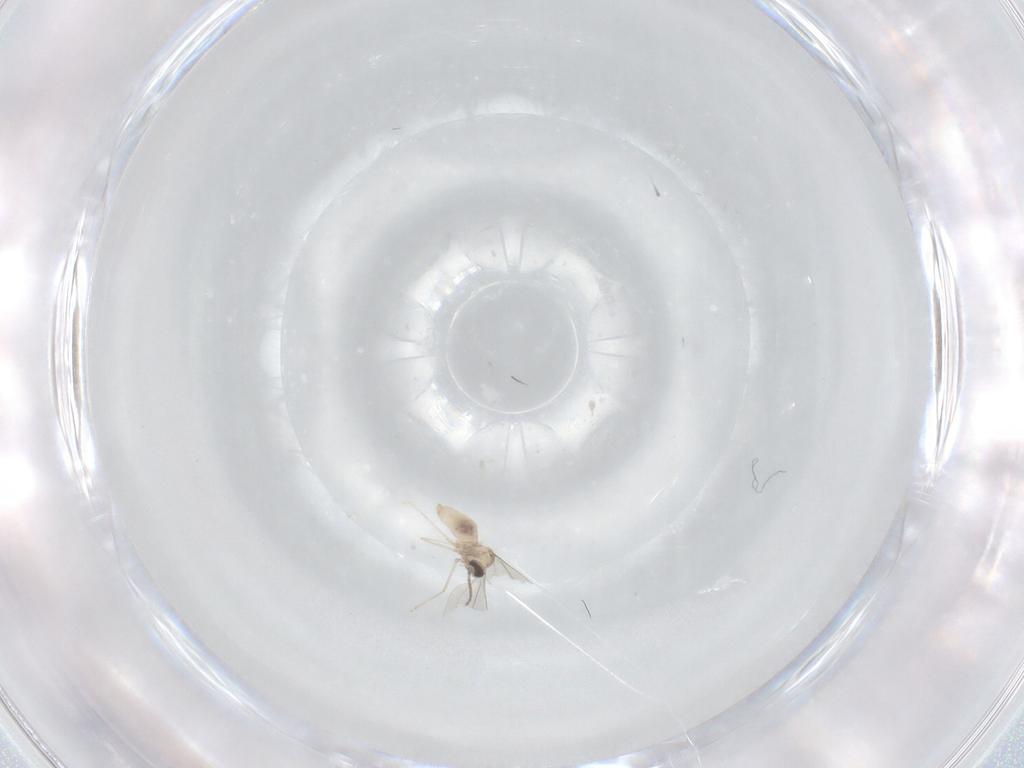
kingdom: Animalia
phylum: Arthropoda
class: Insecta
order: Diptera
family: Cecidomyiidae
